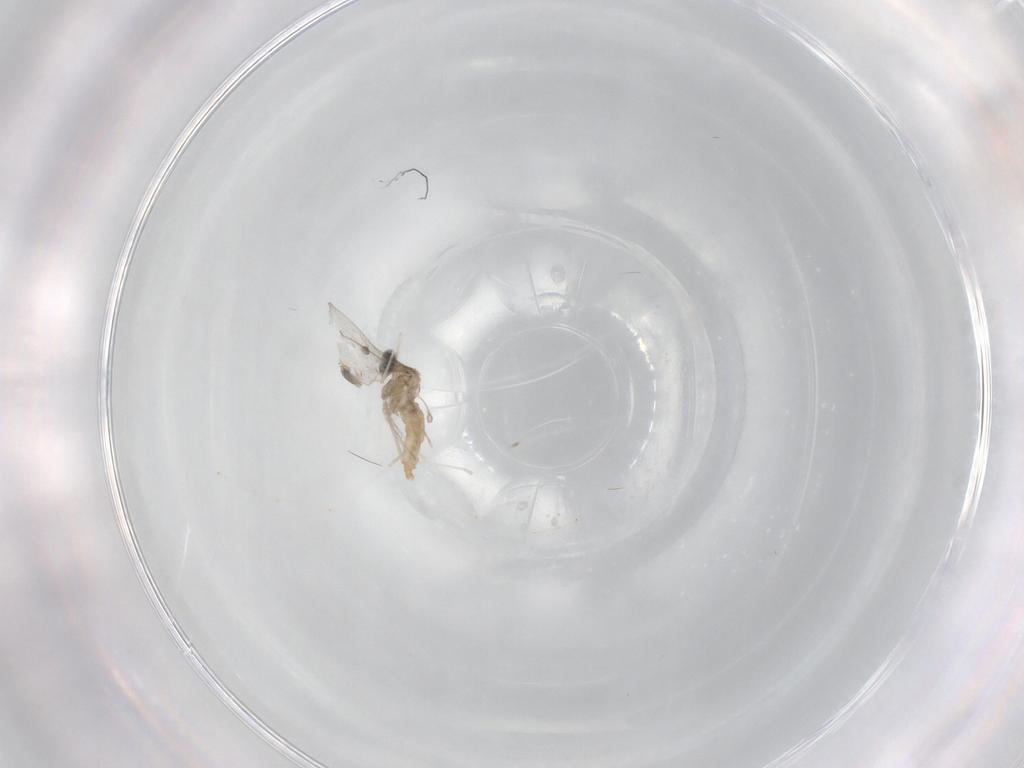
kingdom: Animalia
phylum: Arthropoda
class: Insecta
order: Diptera
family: Cecidomyiidae
